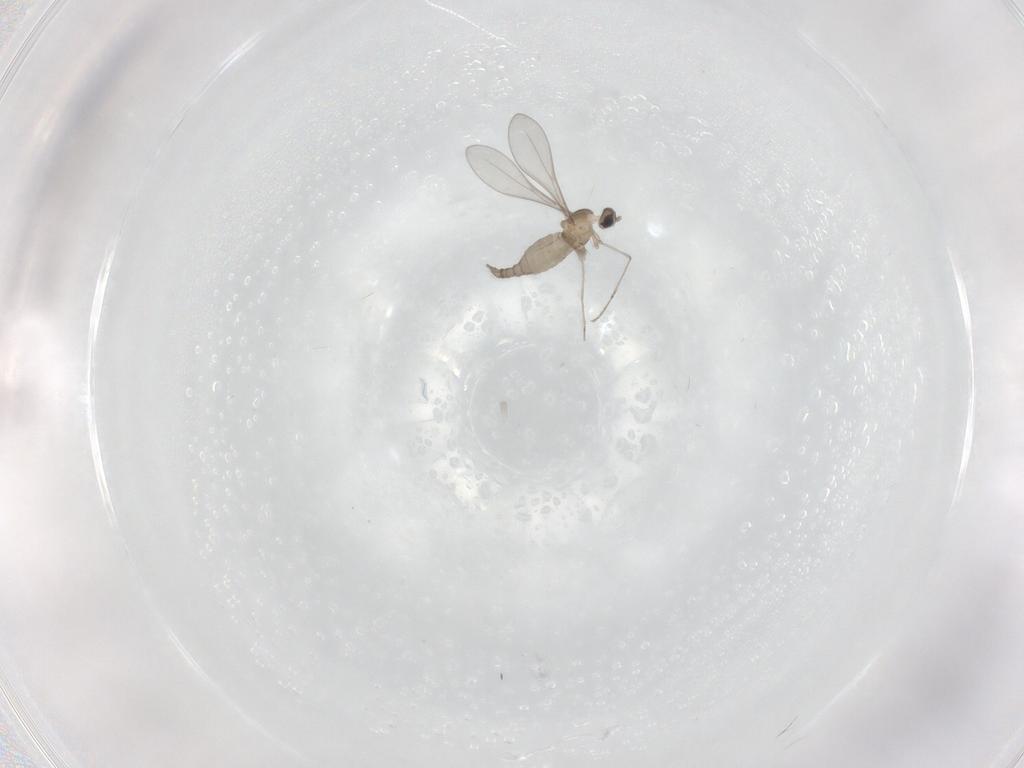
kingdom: Animalia
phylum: Arthropoda
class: Insecta
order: Diptera
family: Cecidomyiidae
